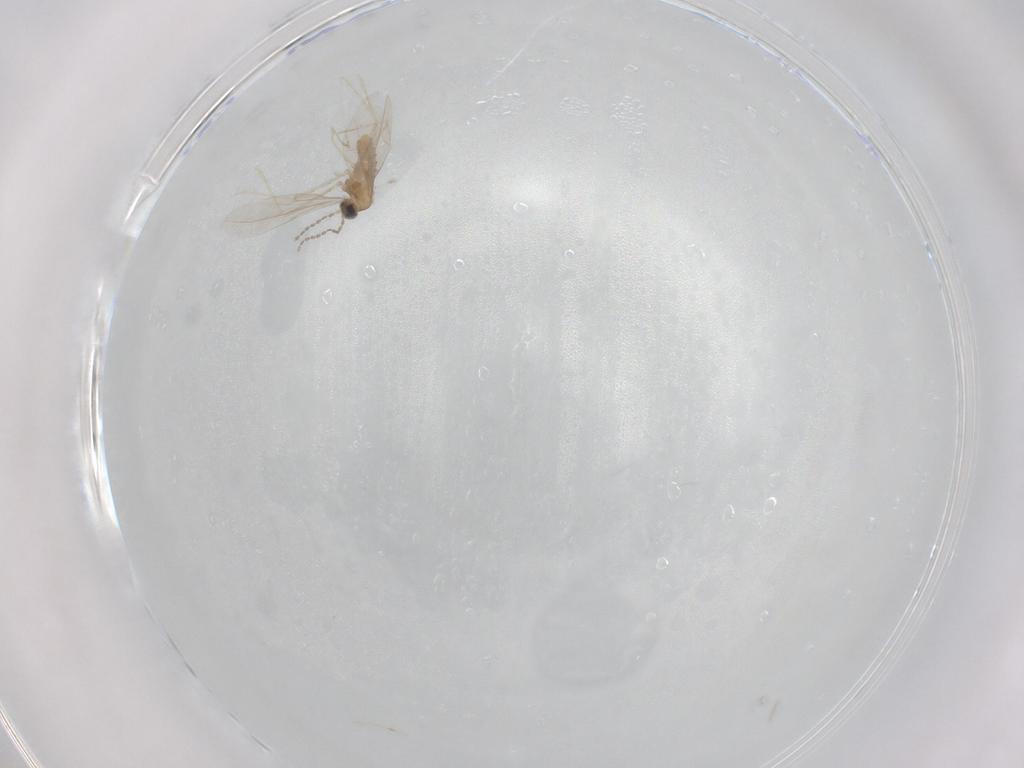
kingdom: Animalia
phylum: Arthropoda
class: Insecta
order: Diptera
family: Cecidomyiidae
